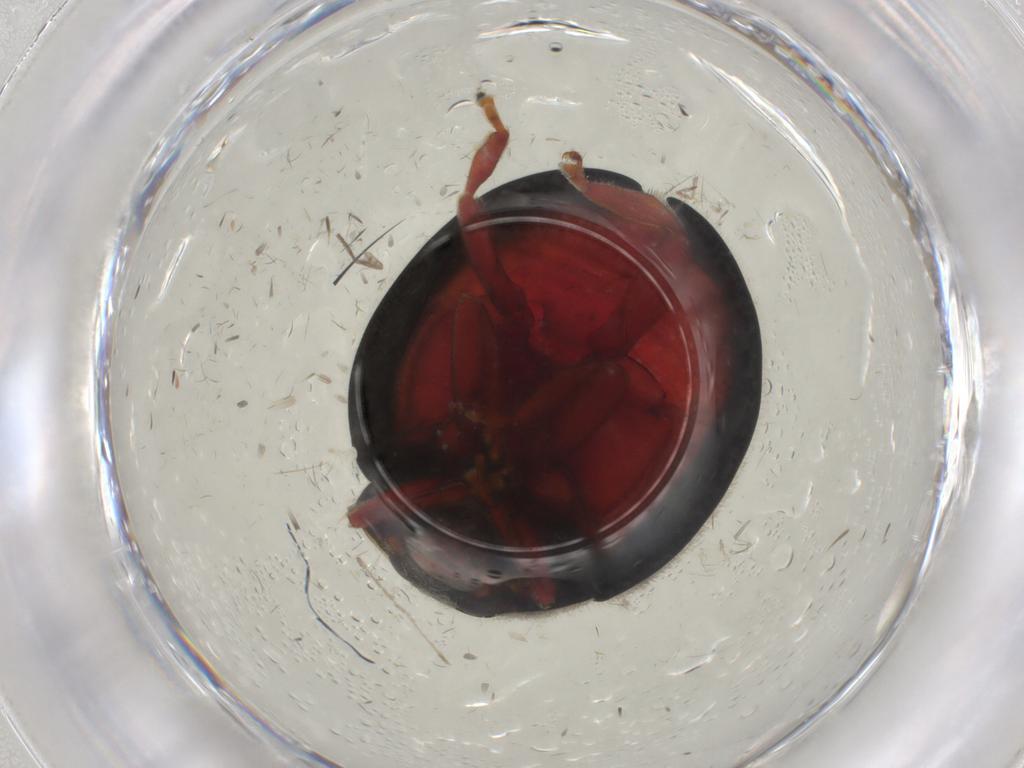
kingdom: Animalia
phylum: Arthropoda
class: Insecta
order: Coleoptera
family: Coccinellidae
